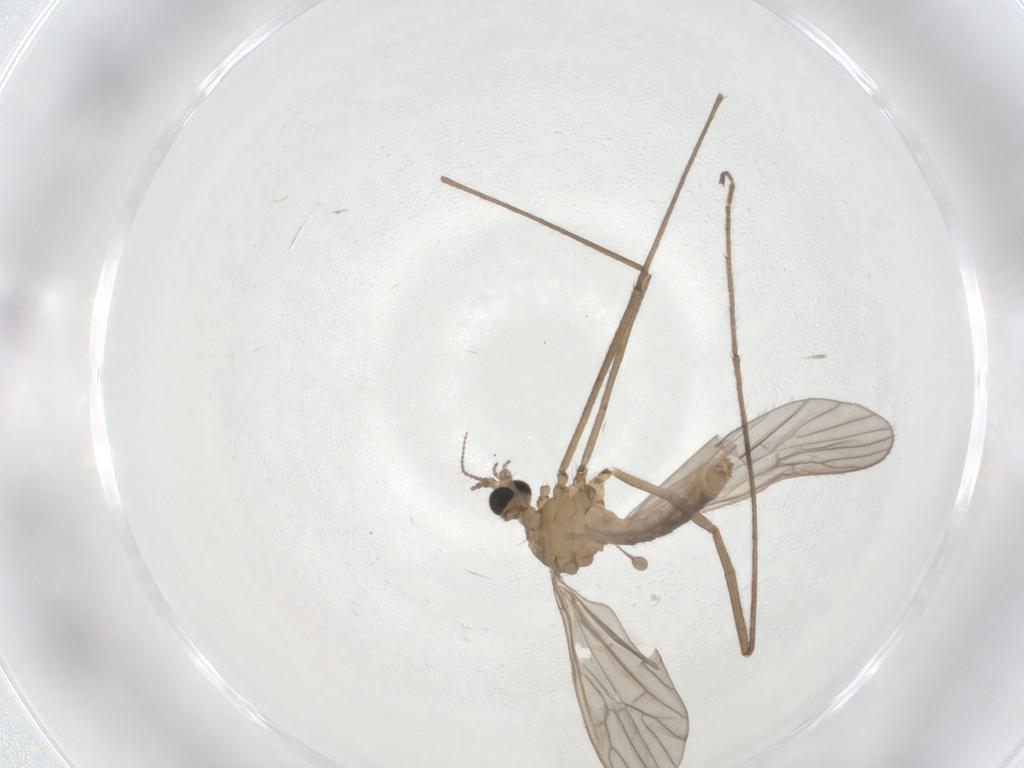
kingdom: Animalia
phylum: Arthropoda
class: Insecta
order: Diptera
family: Limoniidae
